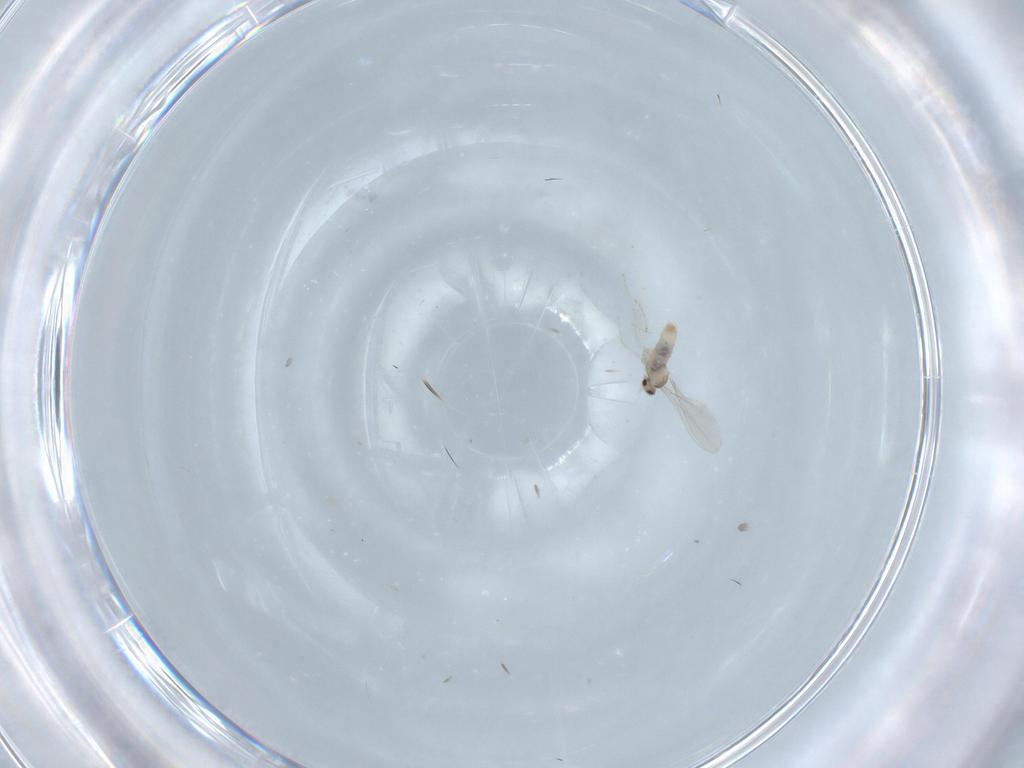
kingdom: Animalia
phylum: Arthropoda
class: Insecta
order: Diptera
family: Cecidomyiidae
